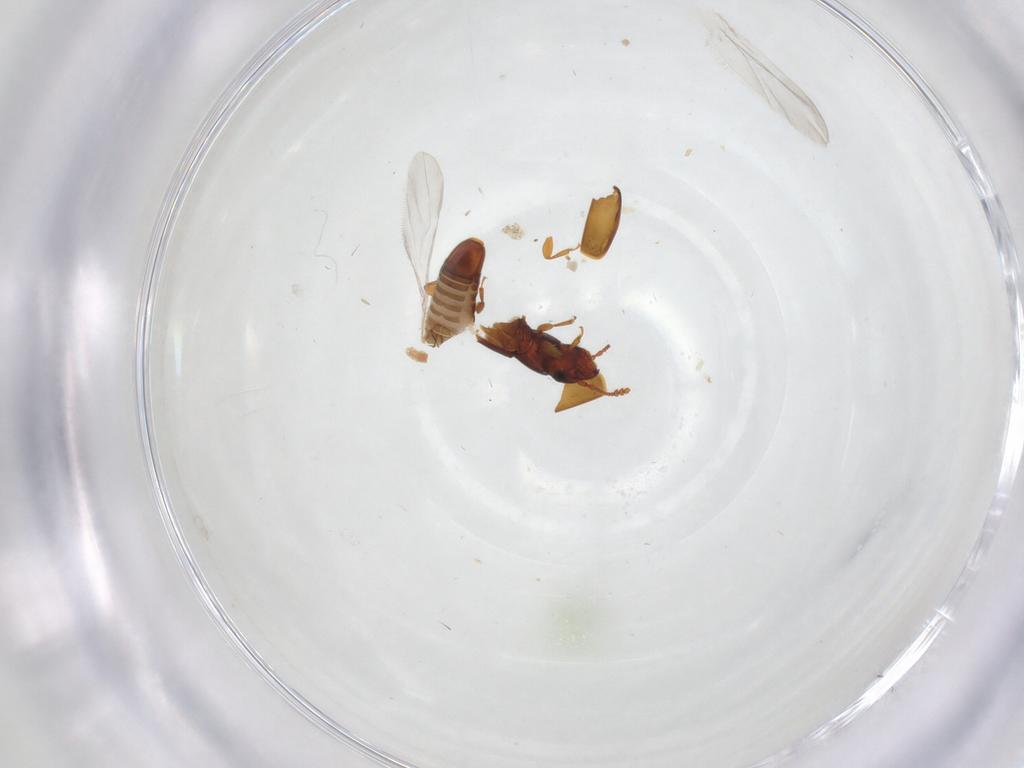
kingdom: Animalia
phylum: Arthropoda
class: Insecta
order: Coleoptera
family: Smicripidae
